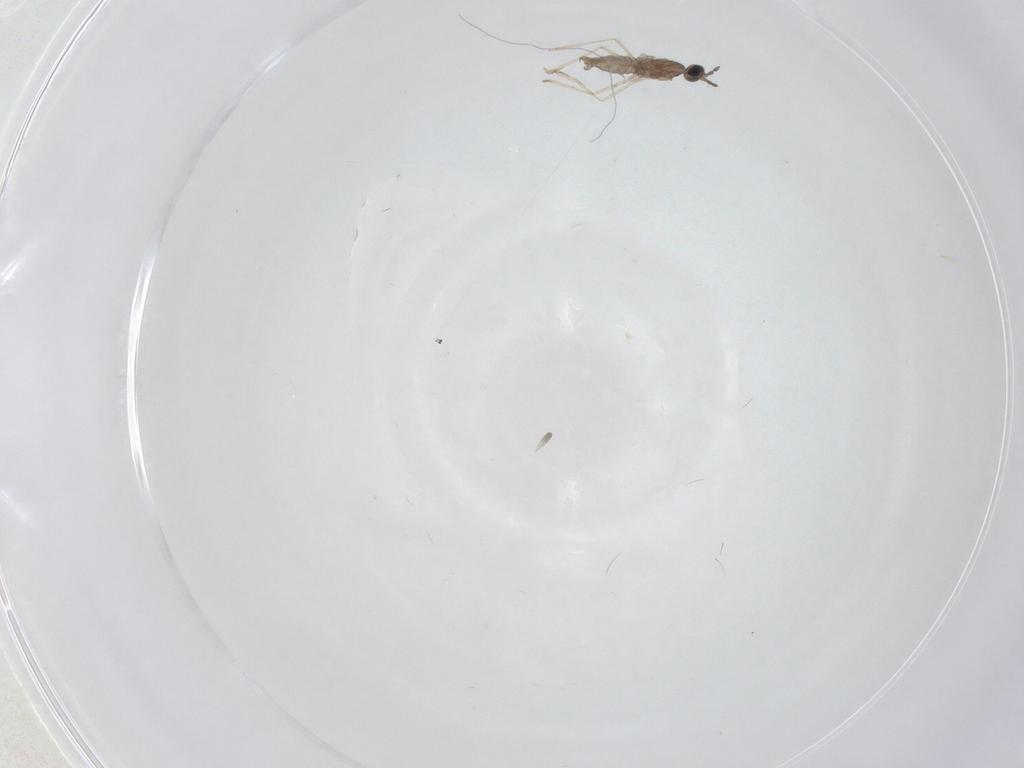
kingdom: Animalia
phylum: Arthropoda
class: Insecta
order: Diptera
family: Phoridae
